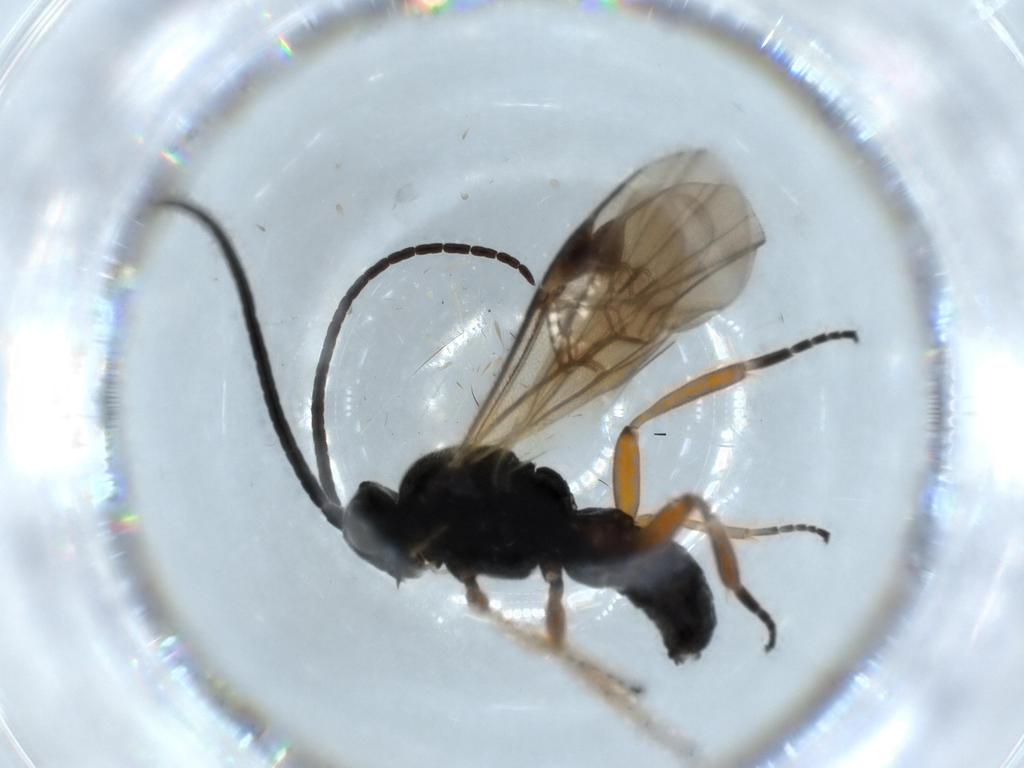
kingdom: Animalia
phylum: Arthropoda
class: Insecta
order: Hymenoptera
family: Braconidae
